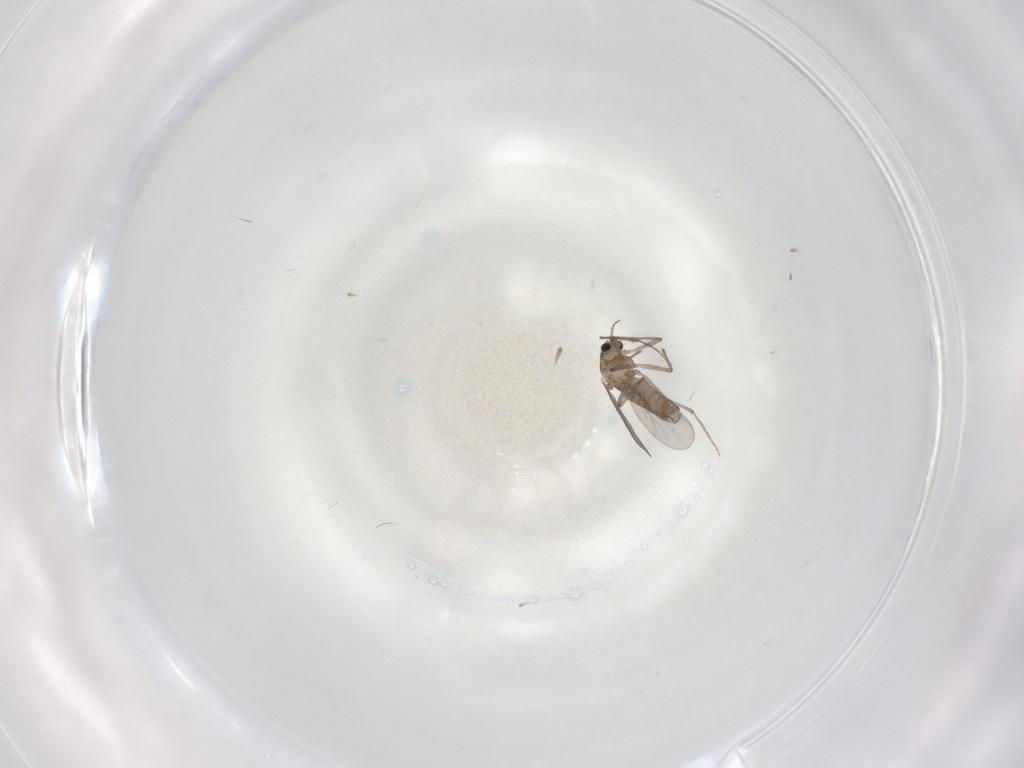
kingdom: Animalia
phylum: Arthropoda
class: Insecta
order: Diptera
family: Chironomidae
